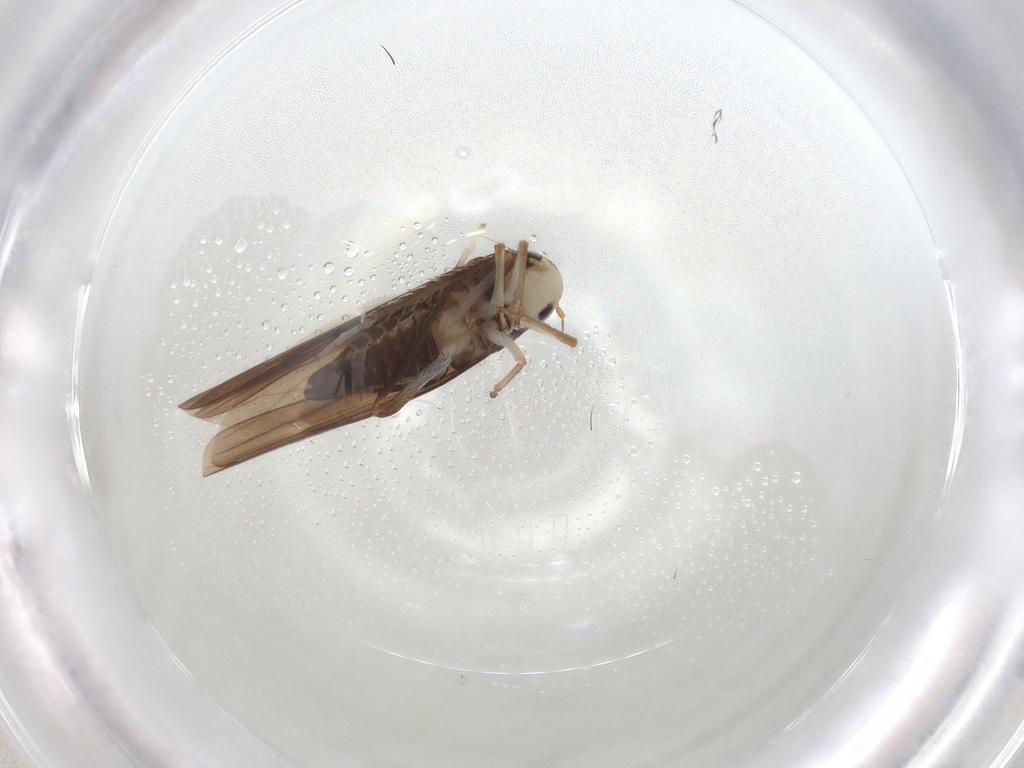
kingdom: Animalia
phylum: Arthropoda
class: Insecta
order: Hemiptera
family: Cicadellidae
